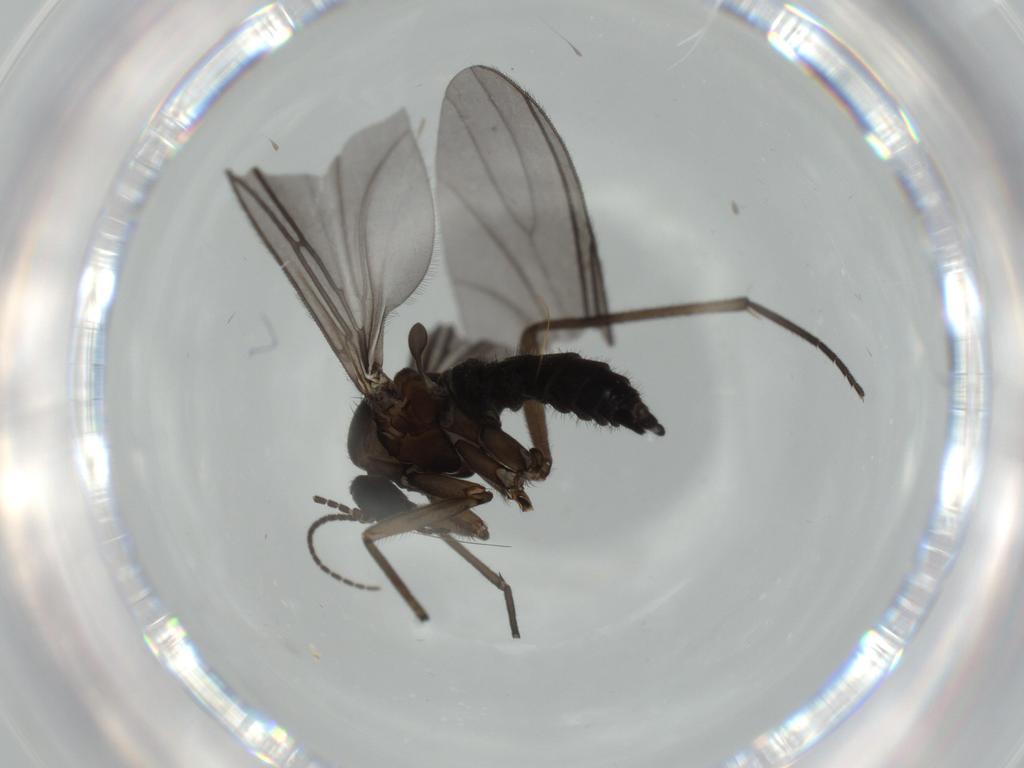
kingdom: Animalia
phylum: Arthropoda
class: Insecta
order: Diptera
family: Sciaridae
